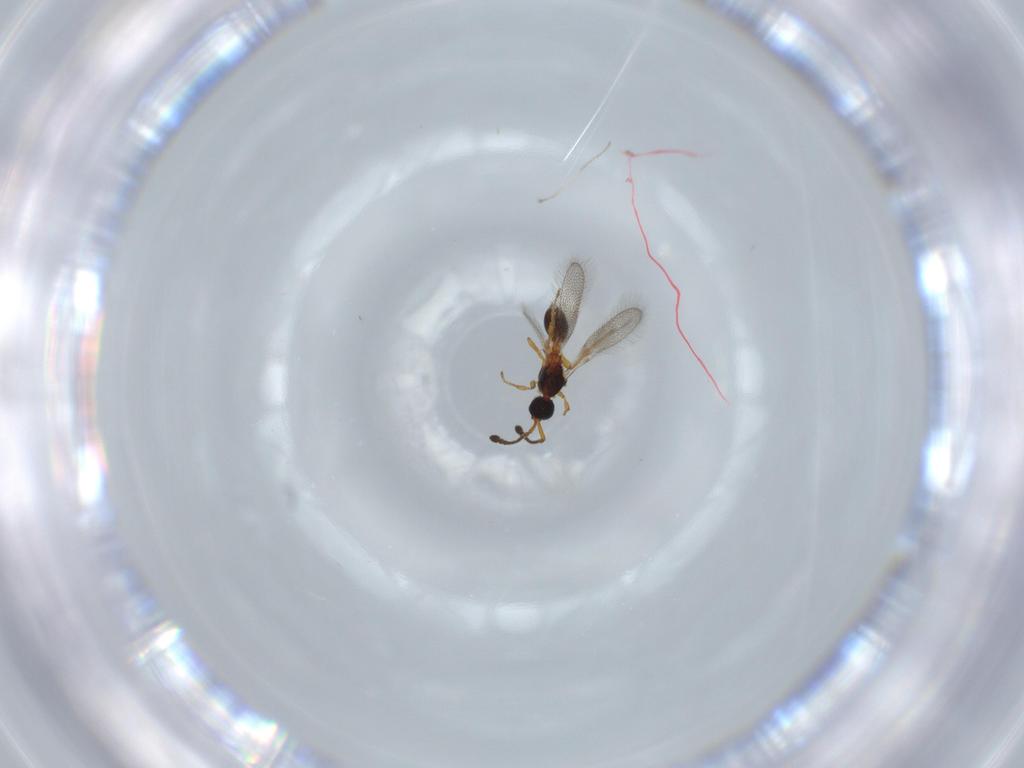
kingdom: Animalia
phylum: Arthropoda
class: Insecta
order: Hymenoptera
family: Diapriidae
